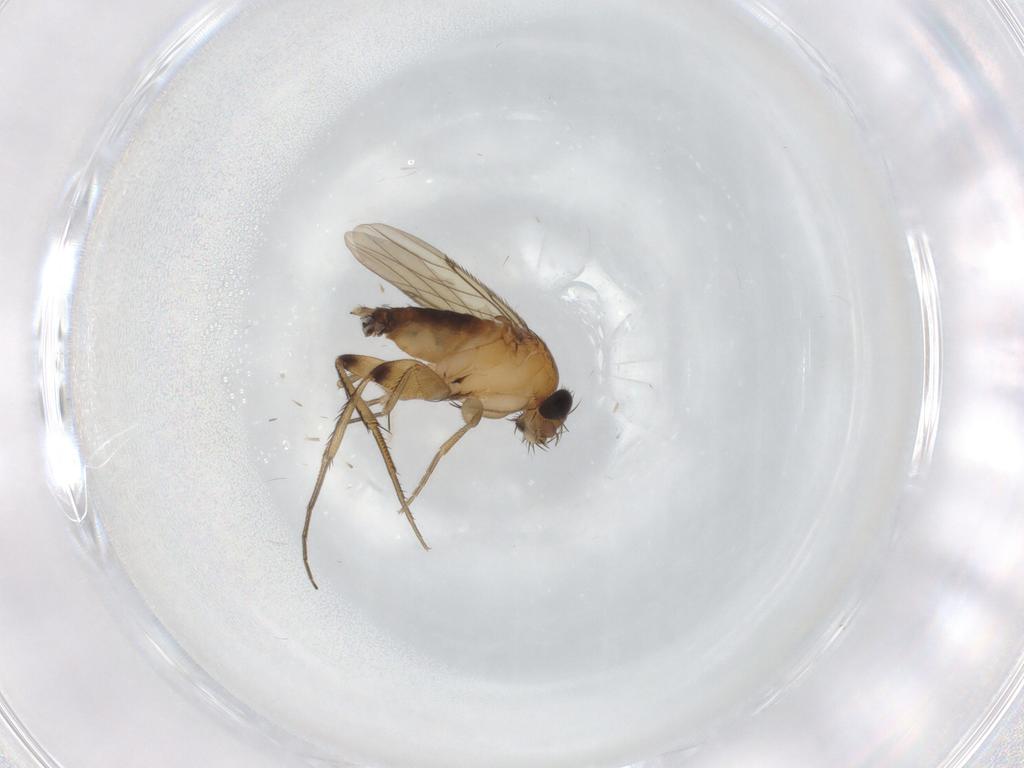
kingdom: Animalia
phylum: Arthropoda
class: Insecta
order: Diptera
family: Phoridae
